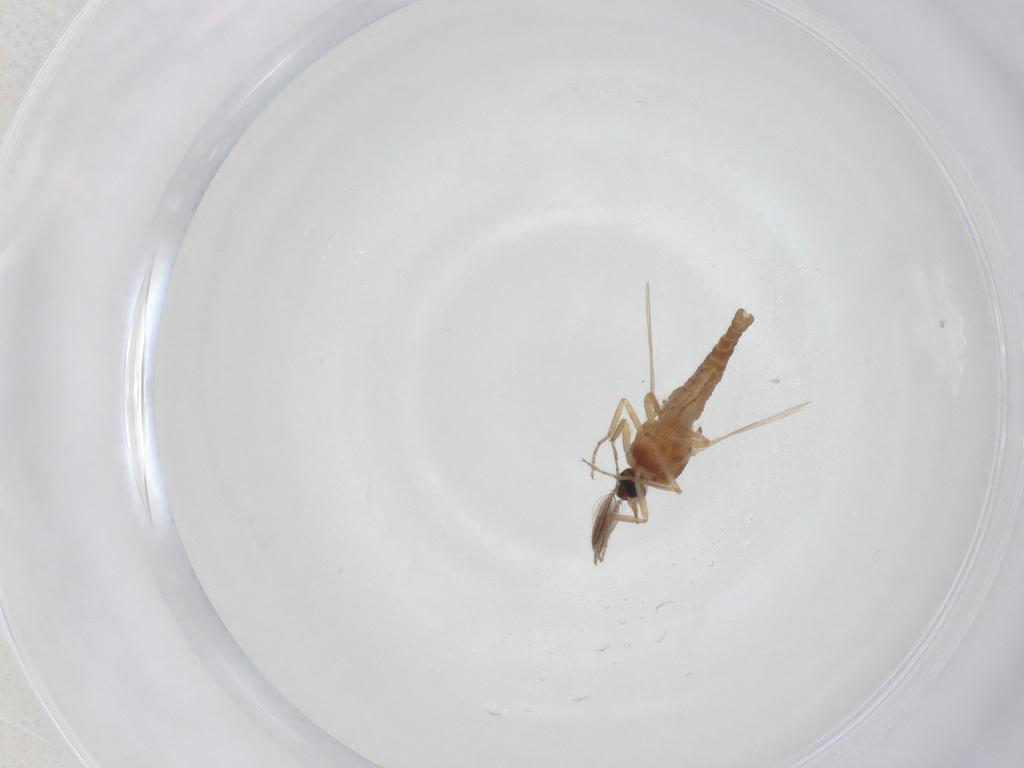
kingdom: Animalia
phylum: Arthropoda
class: Insecta
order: Diptera
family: Ceratopogonidae
